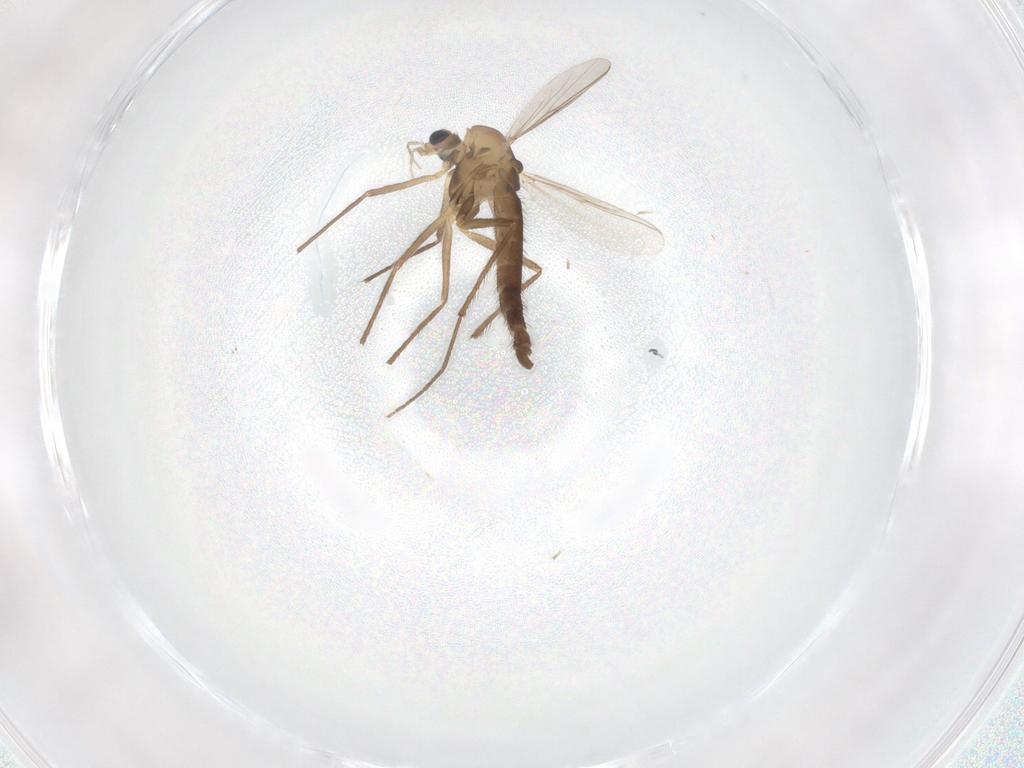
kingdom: Animalia
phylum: Arthropoda
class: Insecta
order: Diptera
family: Chironomidae
